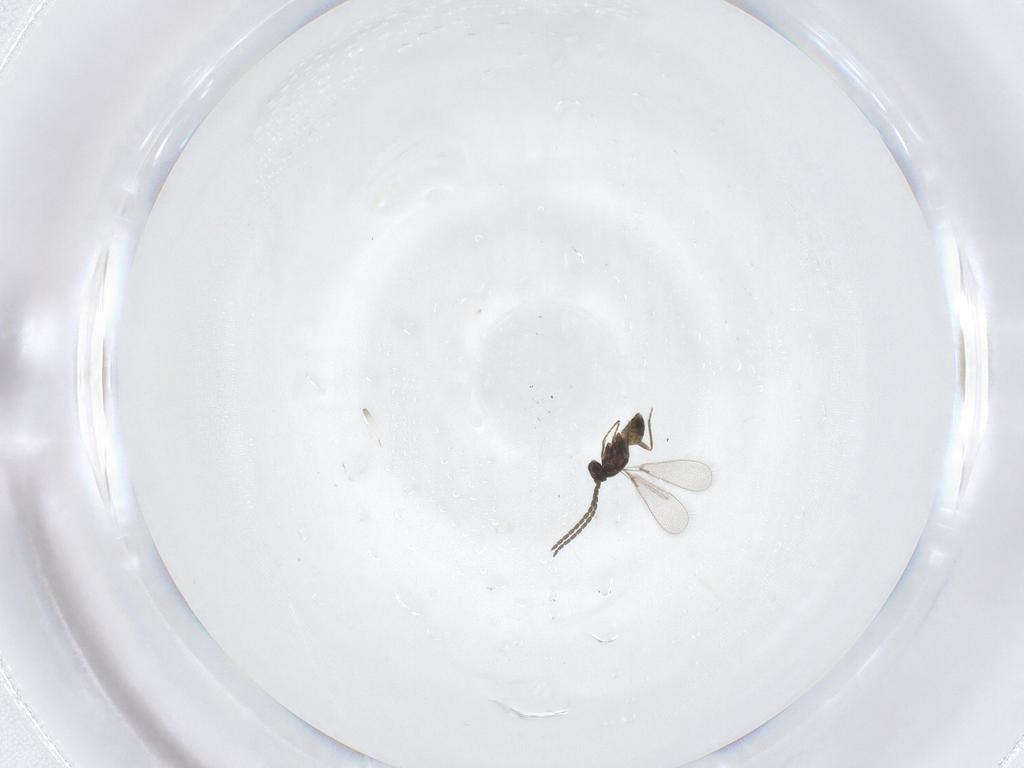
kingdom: Animalia
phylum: Arthropoda
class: Insecta
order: Hymenoptera
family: Mymaridae
